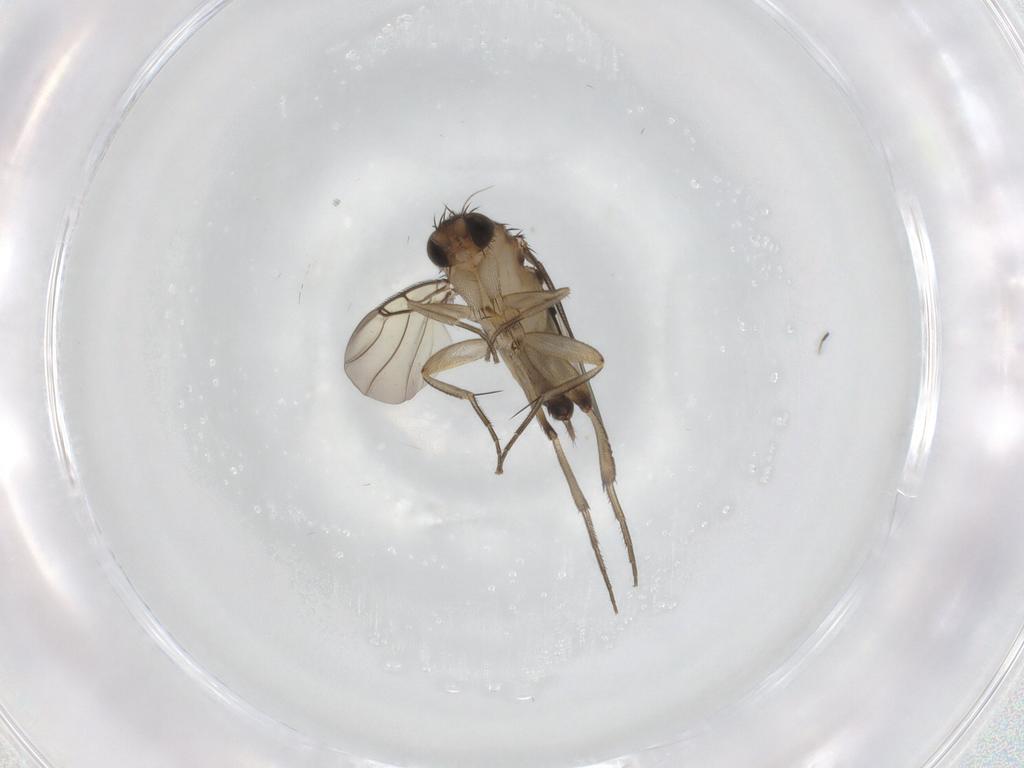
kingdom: Animalia
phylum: Arthropoda
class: Insecta
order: Diptera
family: Phoridae
